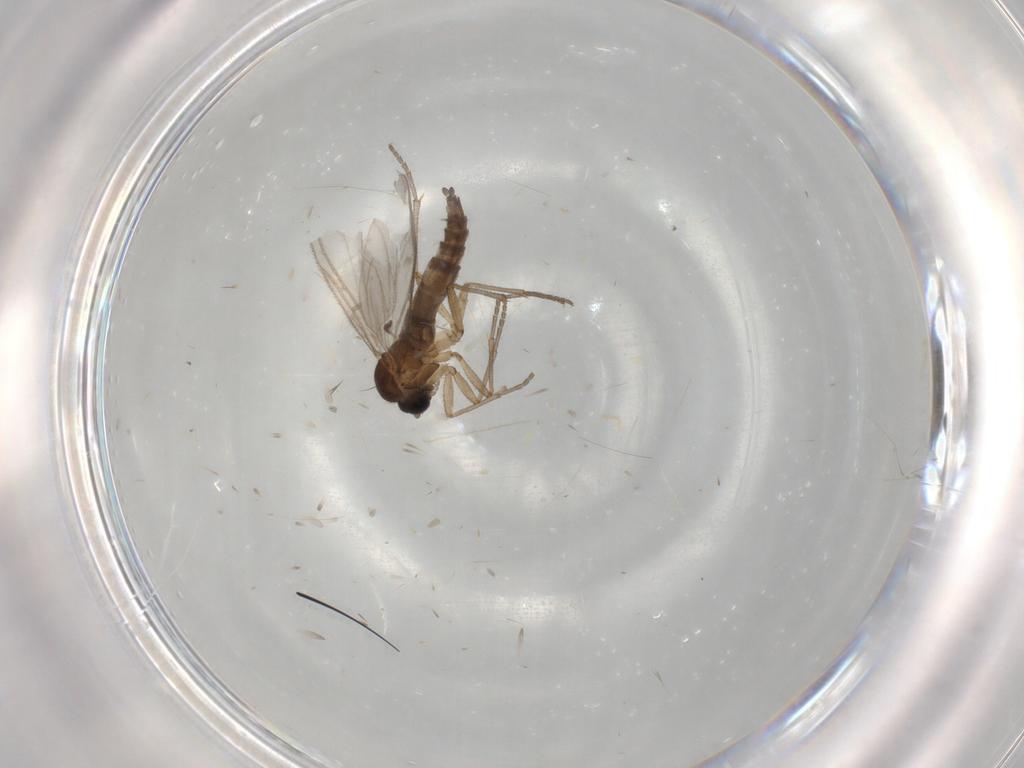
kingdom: Animalia
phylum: Arthropoda
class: Insecta
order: Diptera
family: Sciaridae
